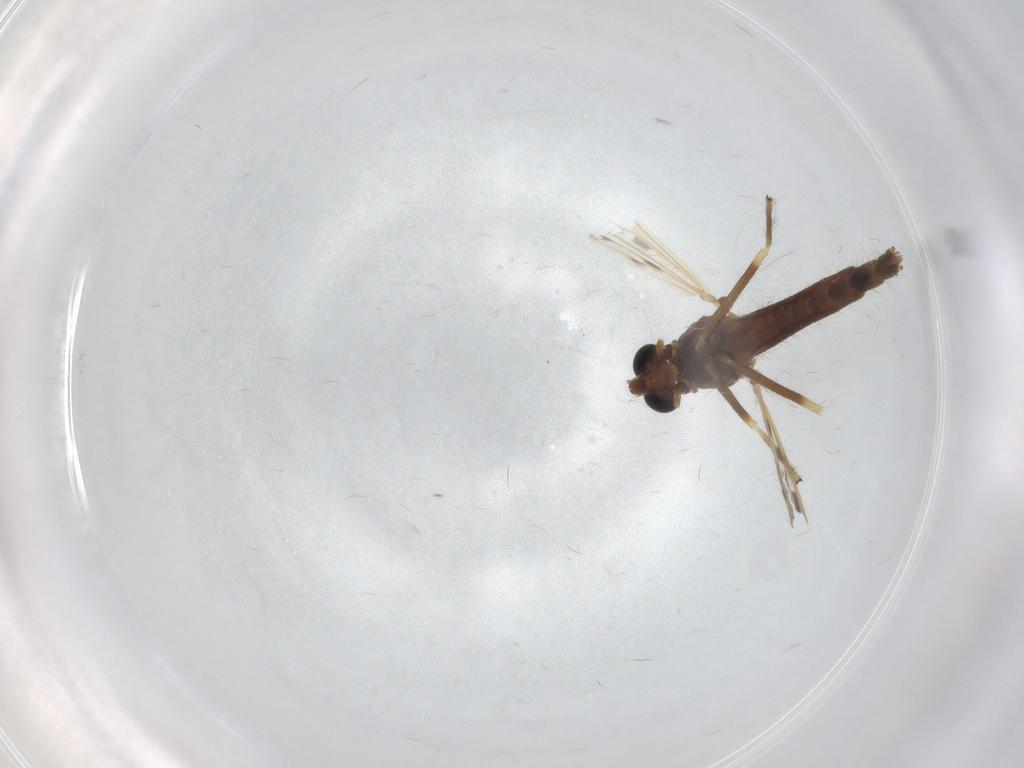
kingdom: Animalia
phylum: Arthropoda
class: Insecta
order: Diptera
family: Chironomidae
